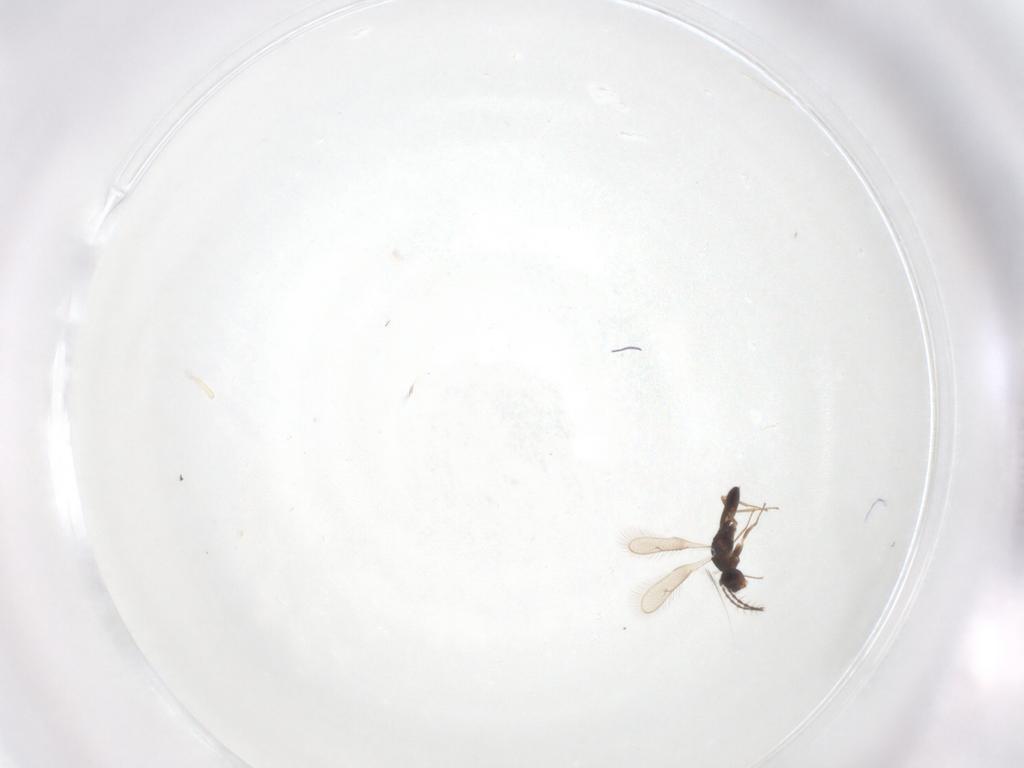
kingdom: Animalia
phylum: Arthropoda
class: Insecta
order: Hymenoptera
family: Pteromalidae
